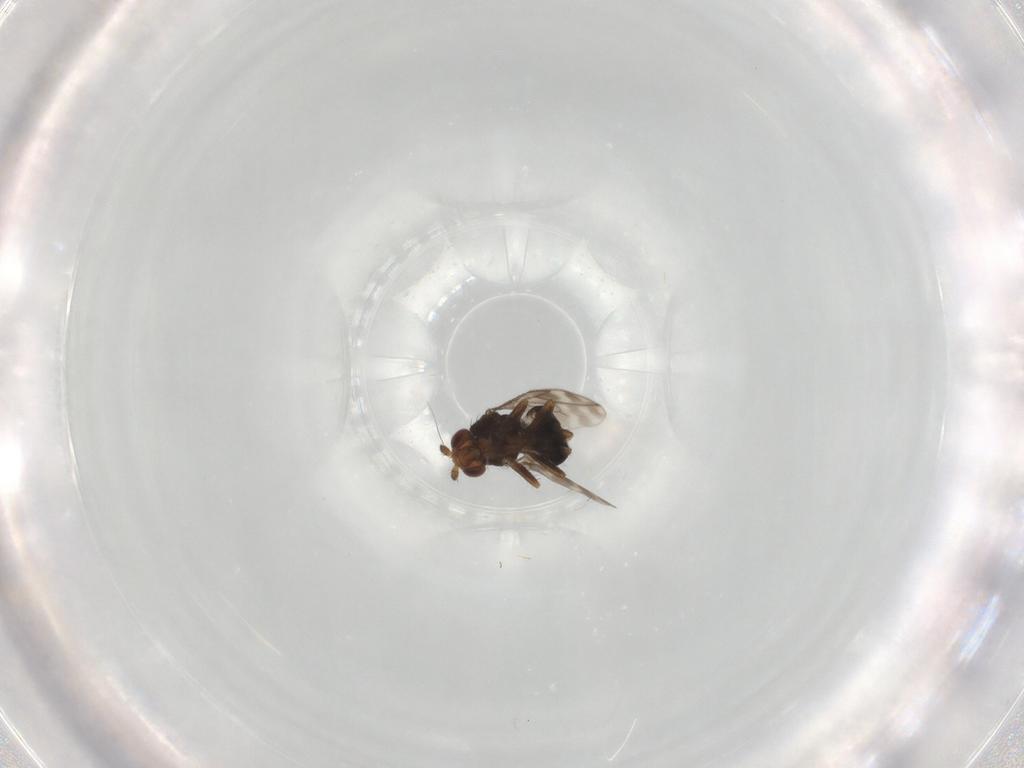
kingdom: Animalia
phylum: Arthropoda
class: Insecta
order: Diptera
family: Sphaeroceridae
